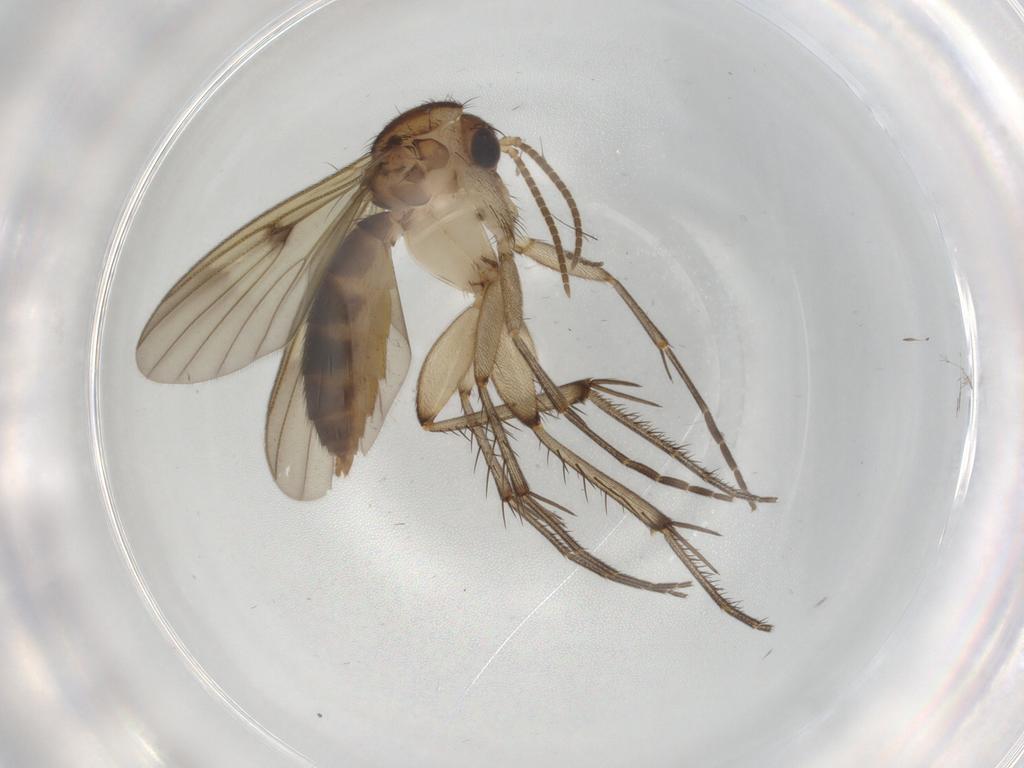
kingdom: Animalia
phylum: Arthropoda
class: Insecta
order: Diptera
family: Mycetophilidae
